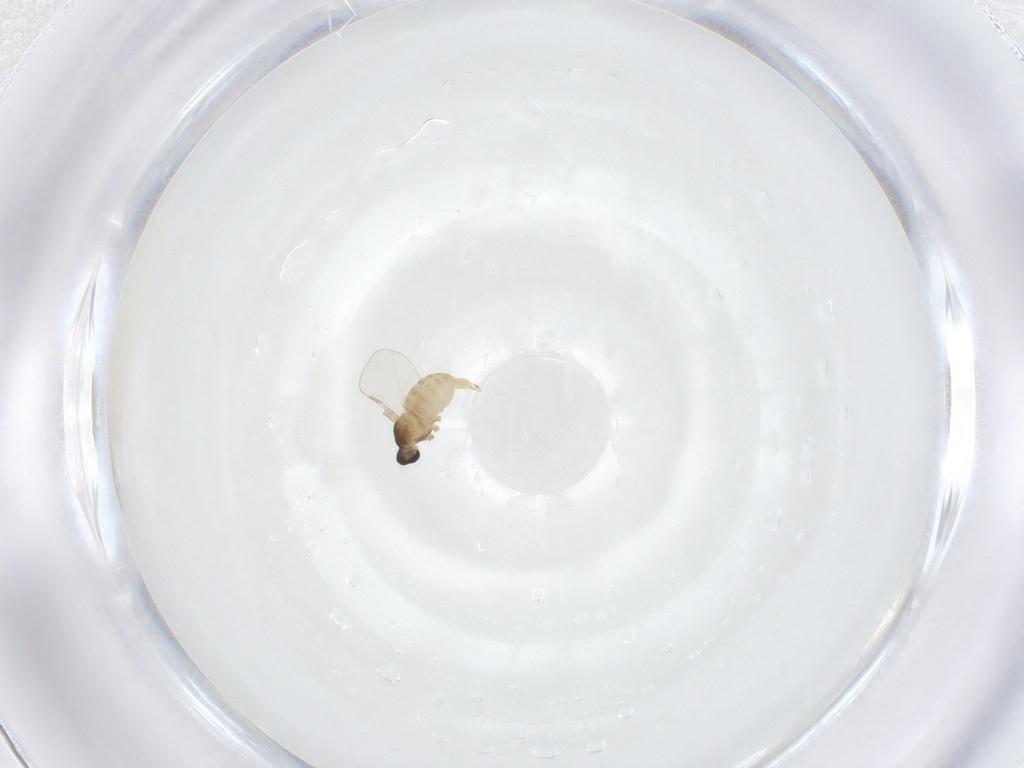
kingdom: Animalia
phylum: Arthropoda
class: Insecta
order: Diptera
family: Cecidomyiidae
